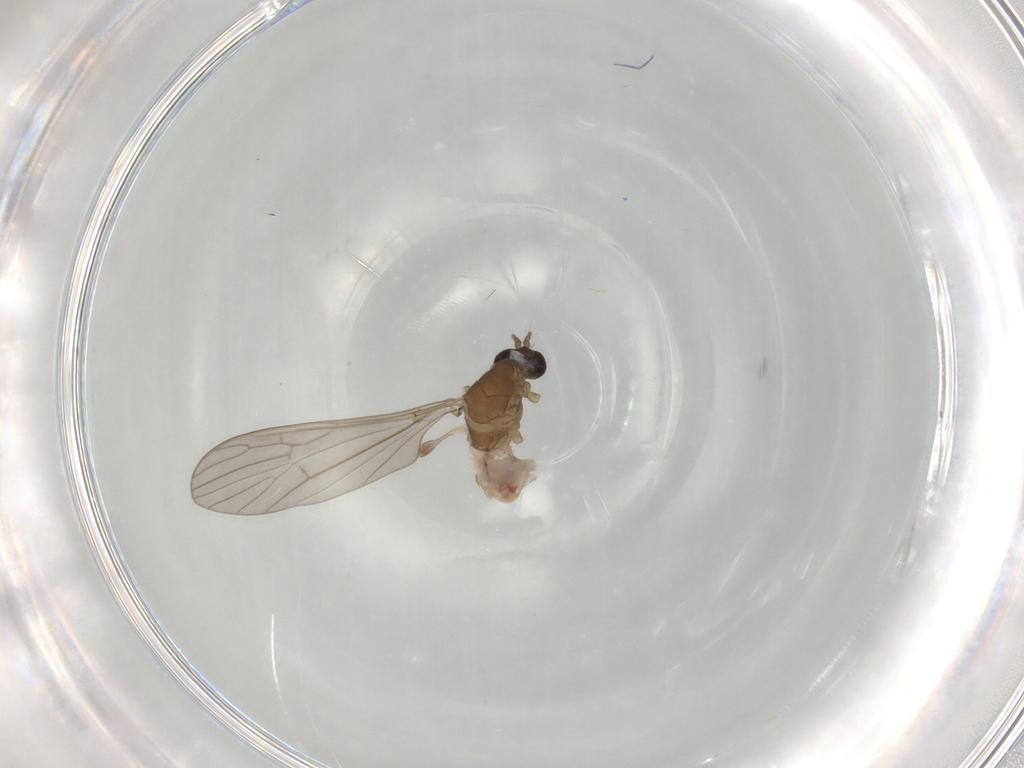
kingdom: Animalia
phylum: Arthropoda
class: Insecta
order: Diptera
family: Limoniidae
